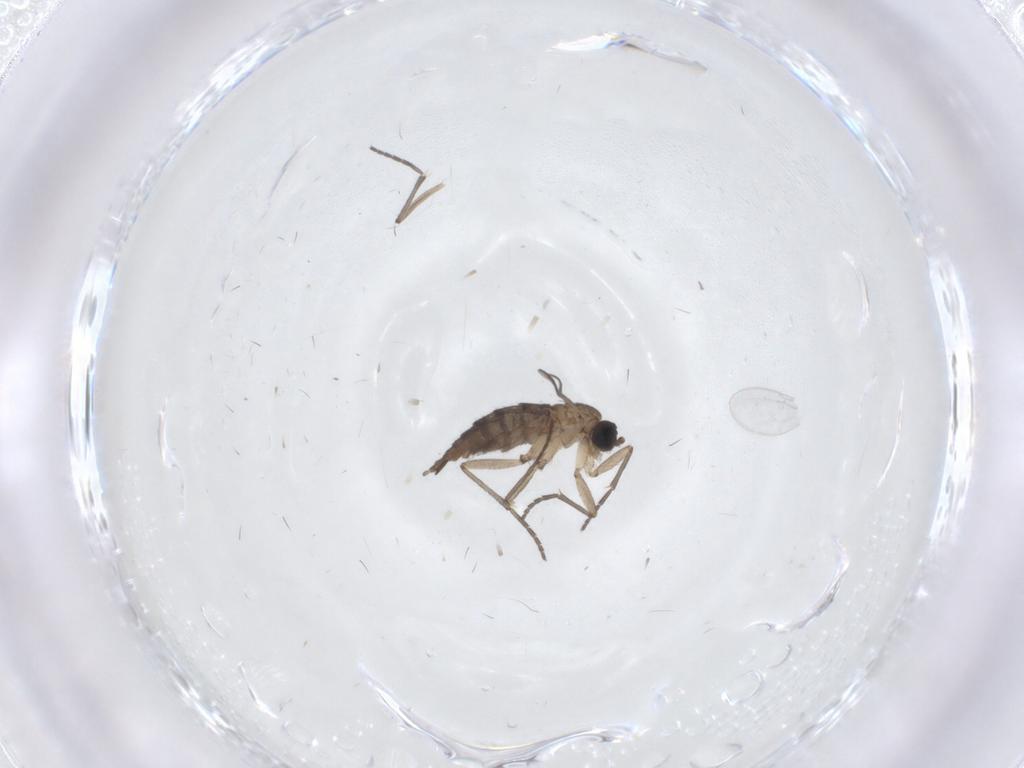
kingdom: Animalia
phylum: Arthropoda
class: Insecta
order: Diptera
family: Sciaridae
